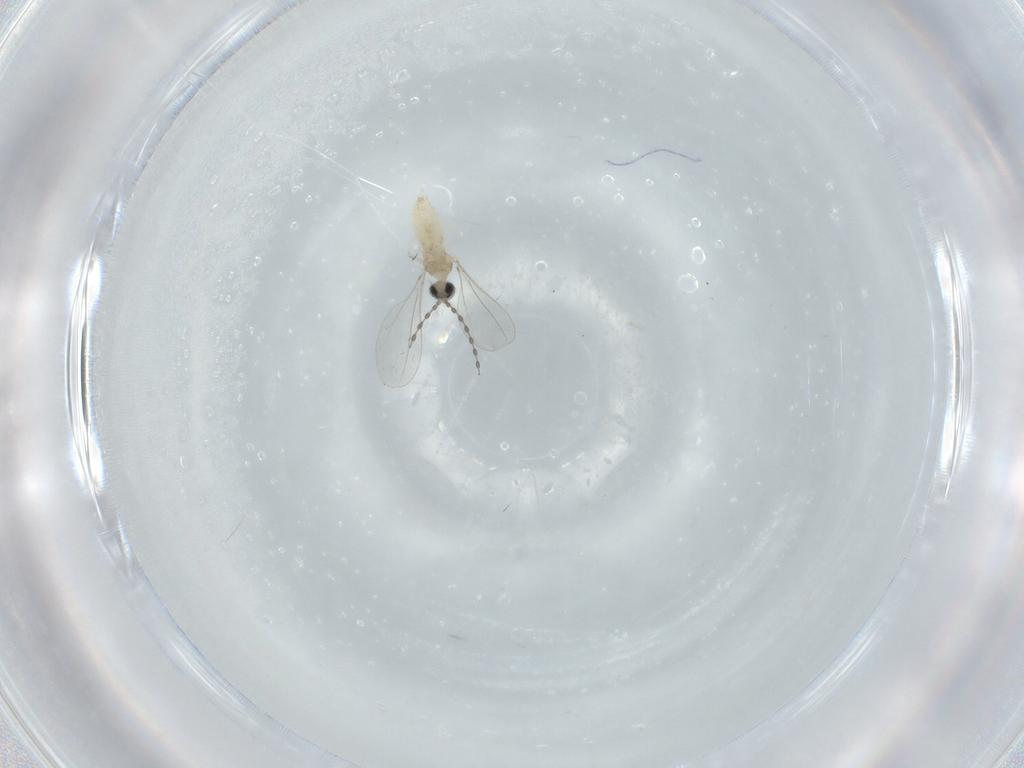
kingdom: Animalia
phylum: Arthropoda
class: Insecta
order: Diptera
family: Cecidomyiidae
